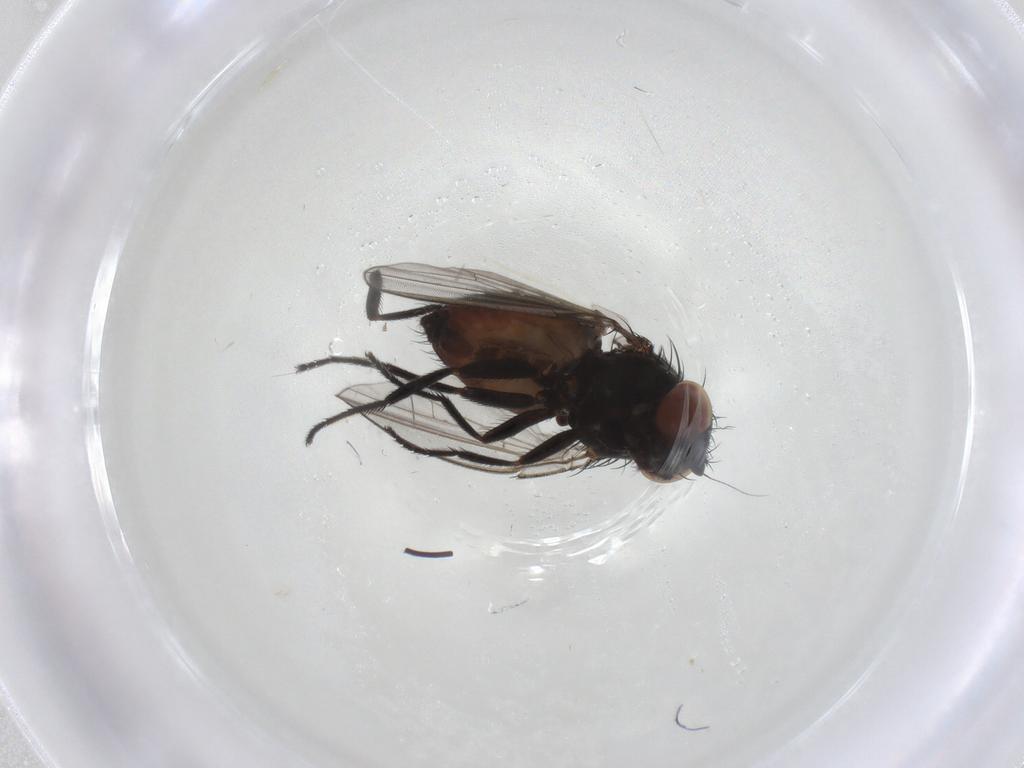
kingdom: Animalia
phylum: Arthropoda
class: Insecta
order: Diptera
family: Milichiidae
